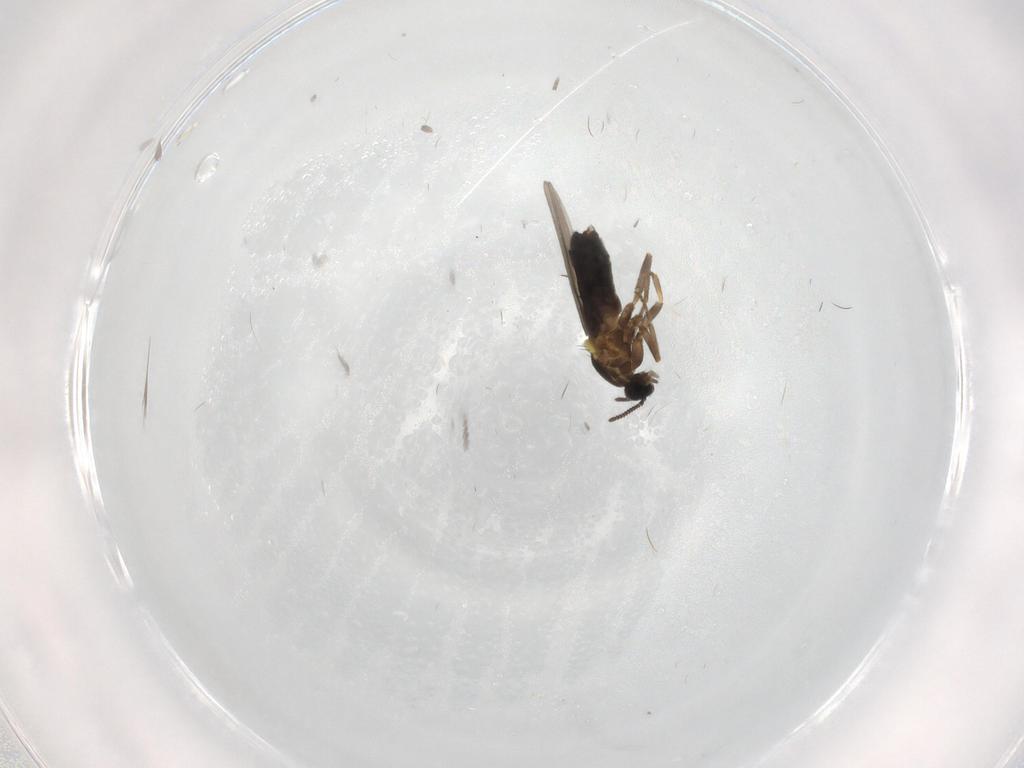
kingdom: Animalia
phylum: Arthropoda
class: Insecta
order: Diptera
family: Scatopsidae
